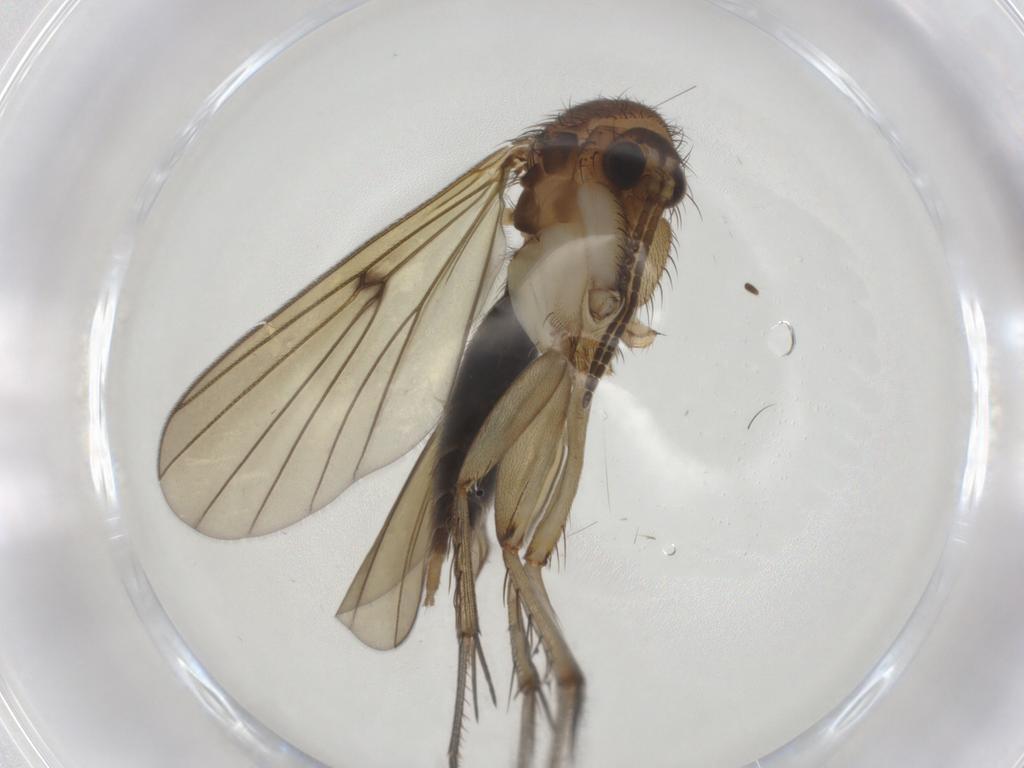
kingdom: Animalia
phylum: Arthropoda
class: Insecta
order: Diptera
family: Mycetophilidae
